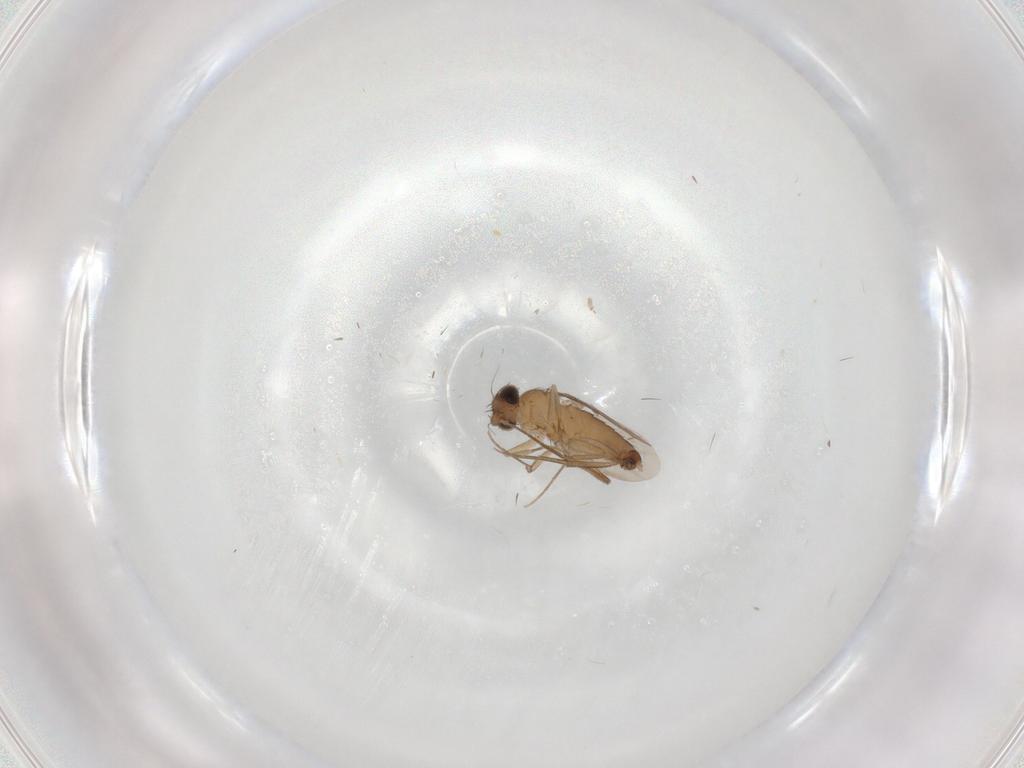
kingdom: Animalia
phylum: Arthropoda
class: Insecta
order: Diptera
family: Phoridae
